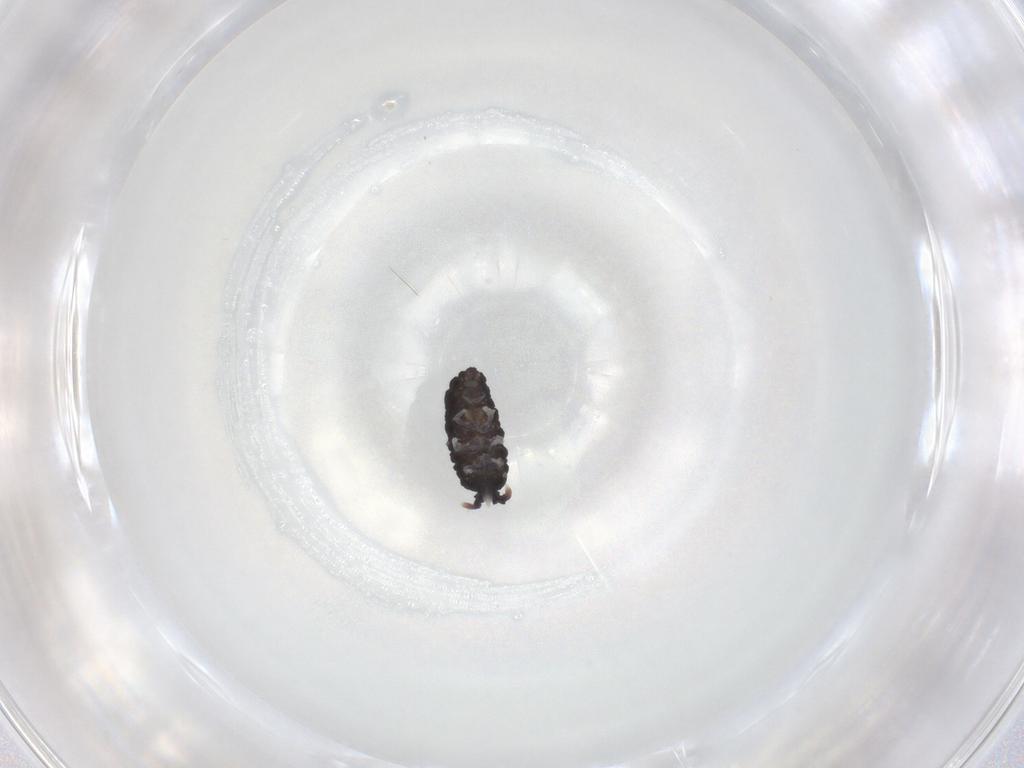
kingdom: Animalia
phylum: Arthropoda
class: Collembola
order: Poduromorpha
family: Neanuridae
